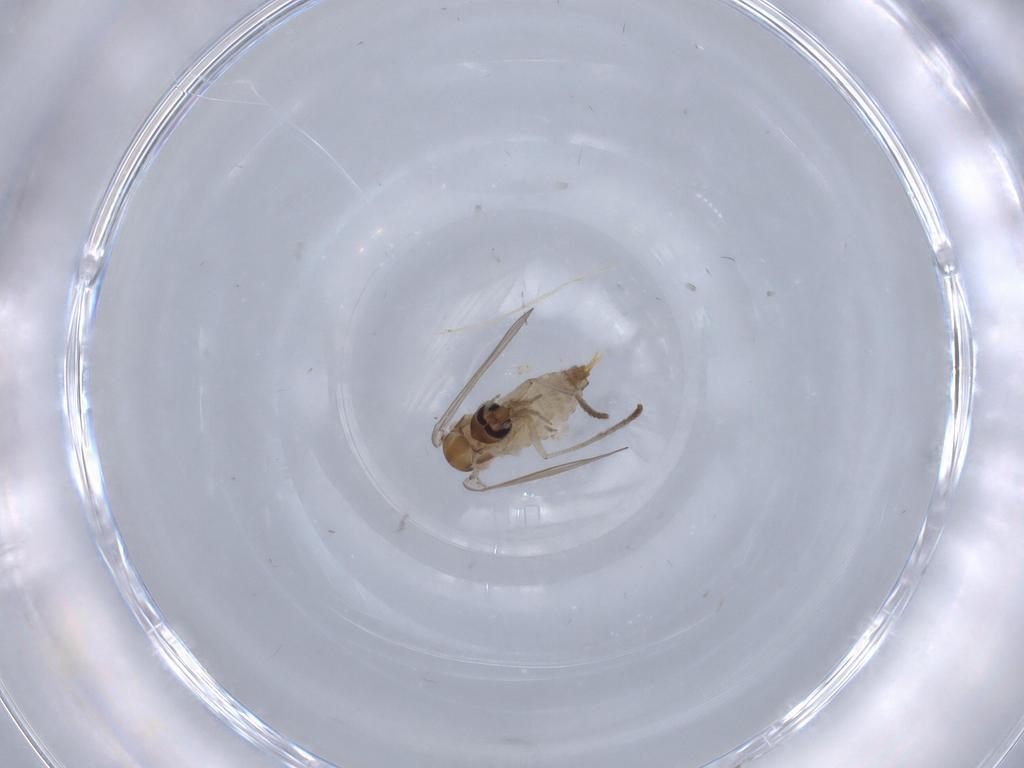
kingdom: Animalia
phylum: Arthropoda
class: Insecta
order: Diptera
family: Psychodidae
